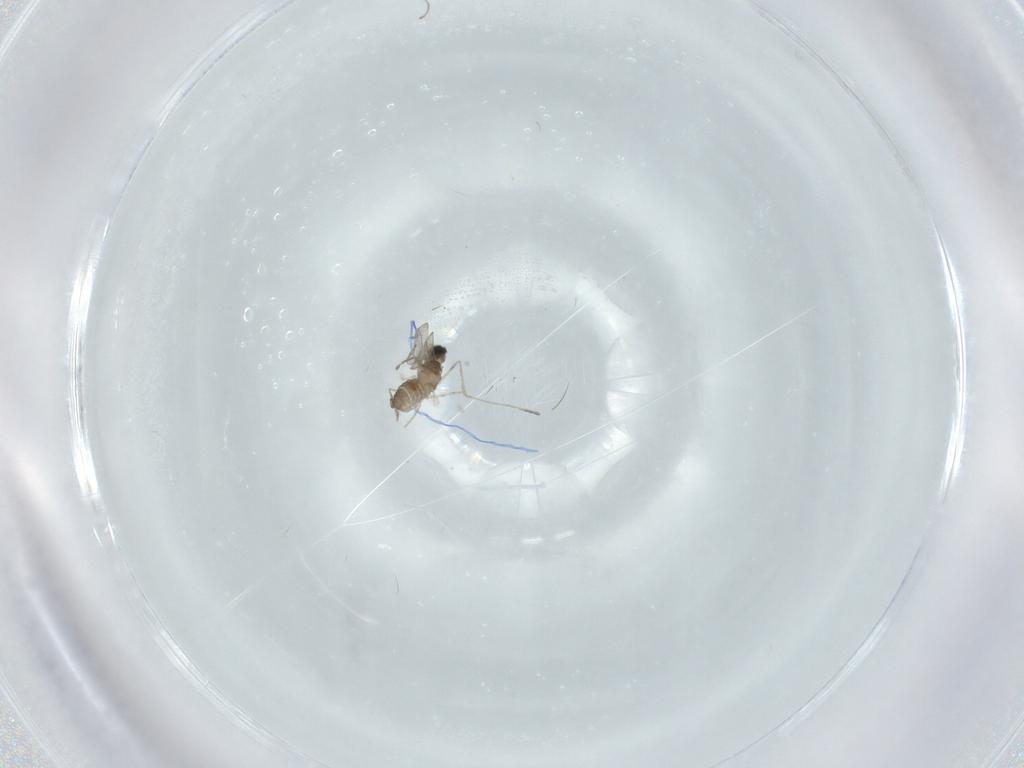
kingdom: Animalia
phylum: Arthropoda
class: Insecta
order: Diptera
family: Cecidomyiidae
